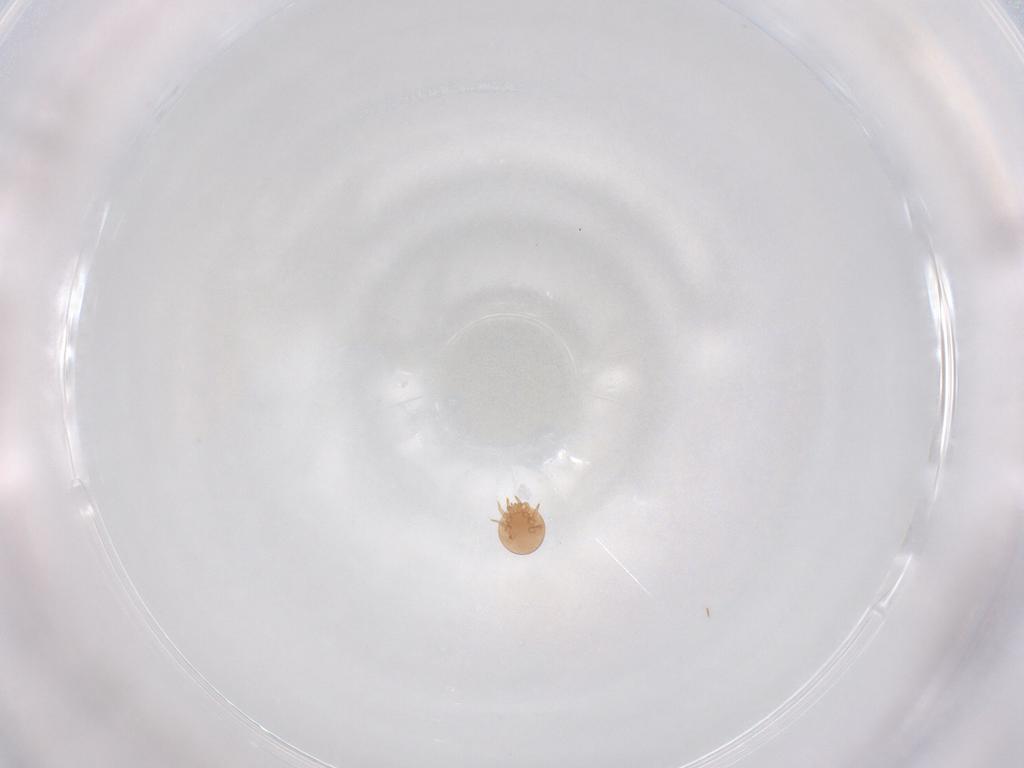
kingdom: Animalia
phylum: Arthropoda
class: Arachnida
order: Mesostigmata
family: Trematuridae
